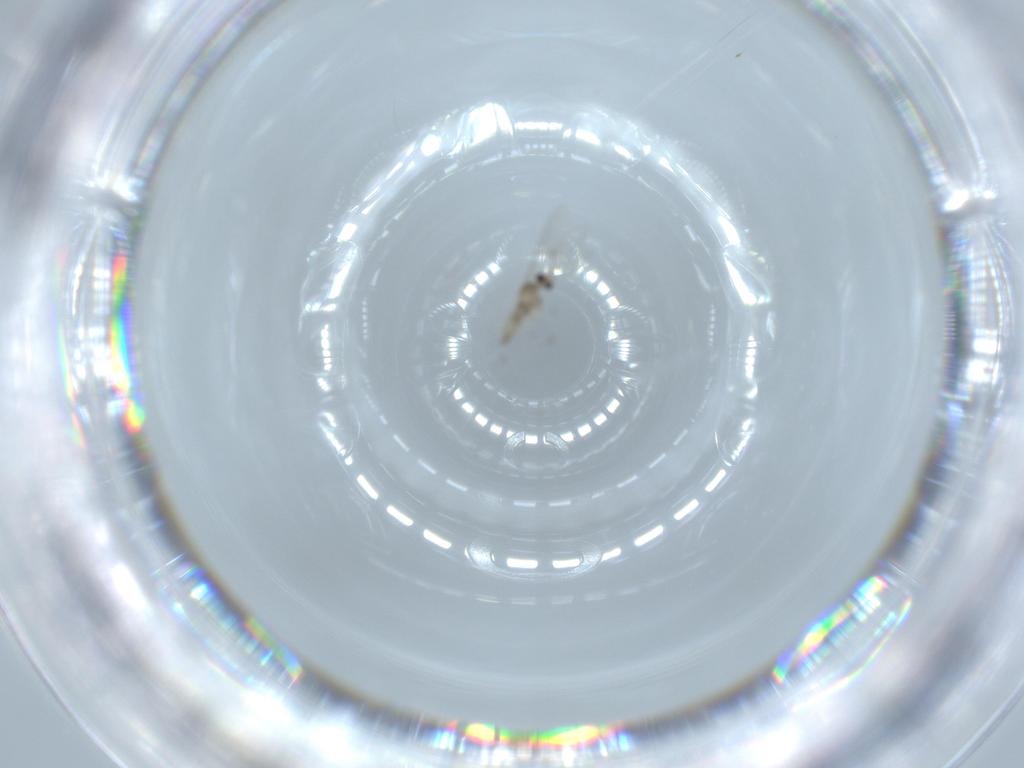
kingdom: Animalia
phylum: Arthropoda
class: Insecta
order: Diptera
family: Cecidomyiidae
